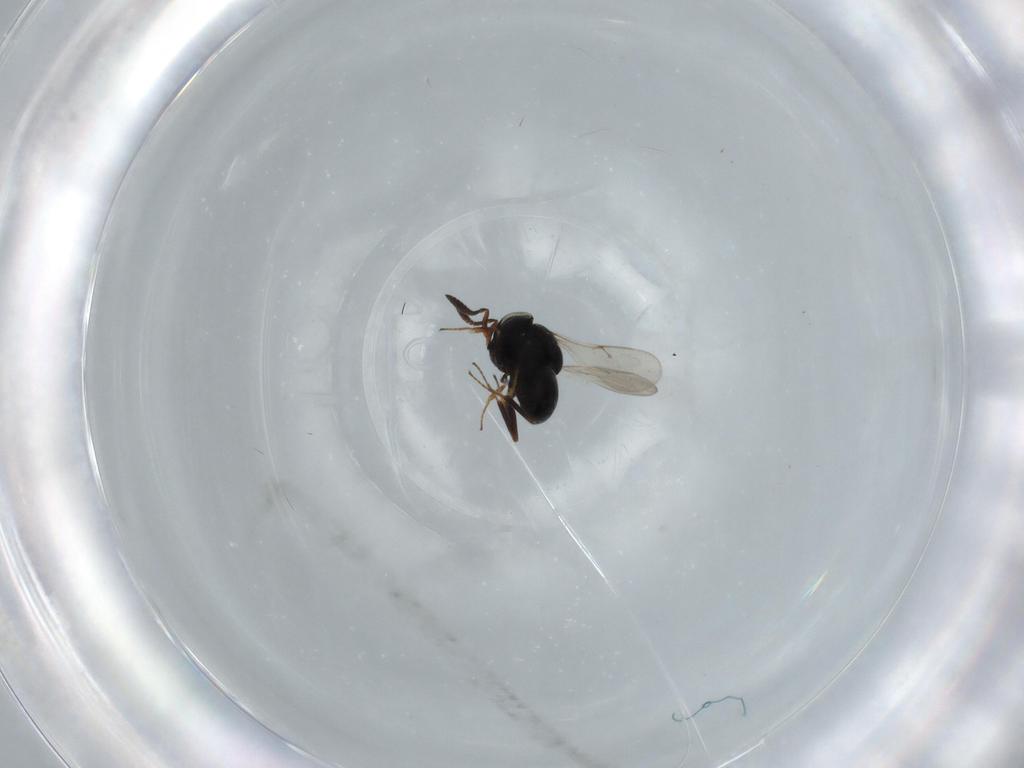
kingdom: Animalia
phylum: Arthropoda
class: Insecta
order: Hymenoptera
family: Scelionidae
